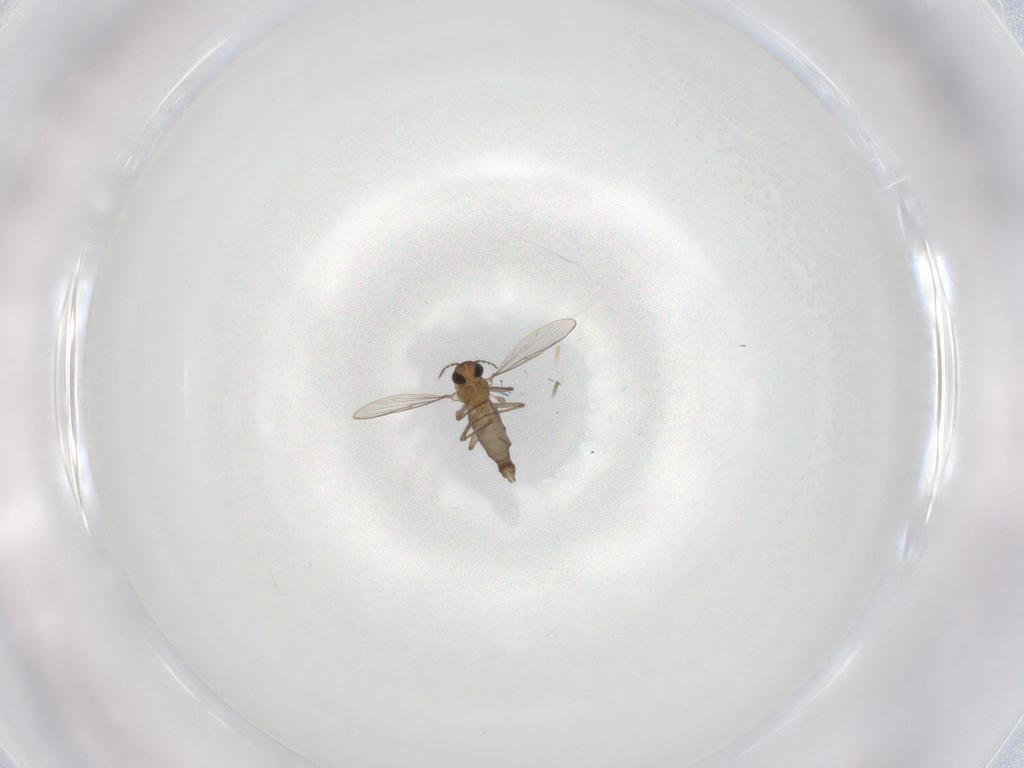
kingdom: Animalia
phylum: Arthropoda
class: Insecta
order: Diptera
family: Chironomidae
